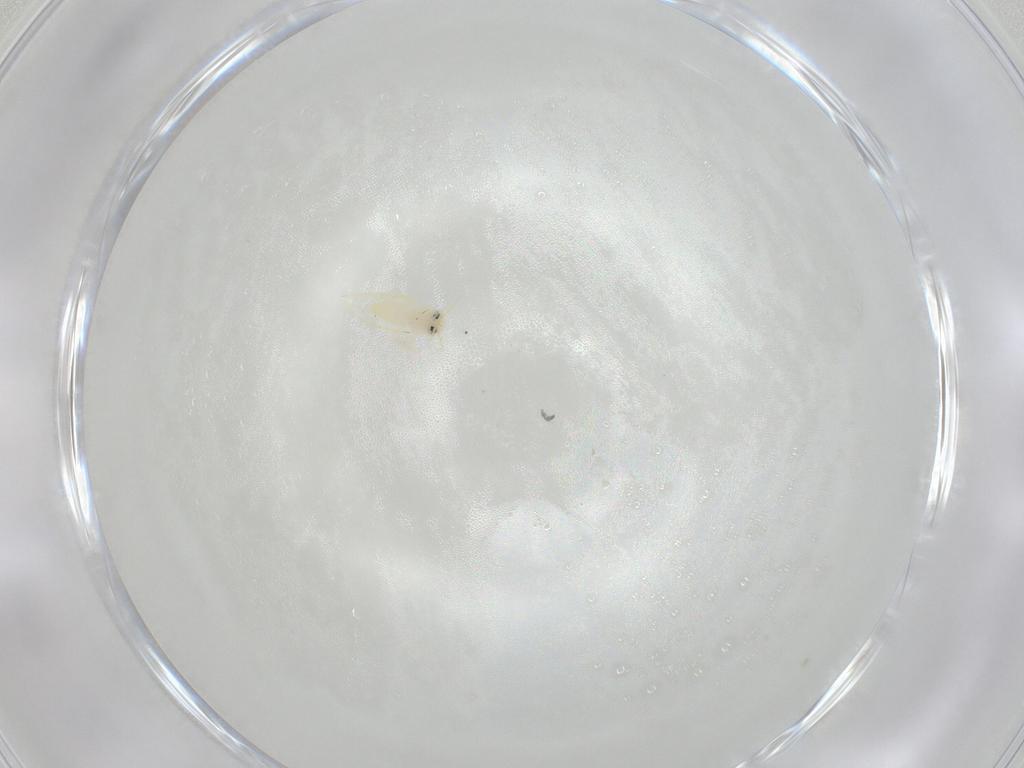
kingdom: Animalia
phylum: Arthropoda
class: Insecta
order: Hemiptera
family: Aleyrodidae
